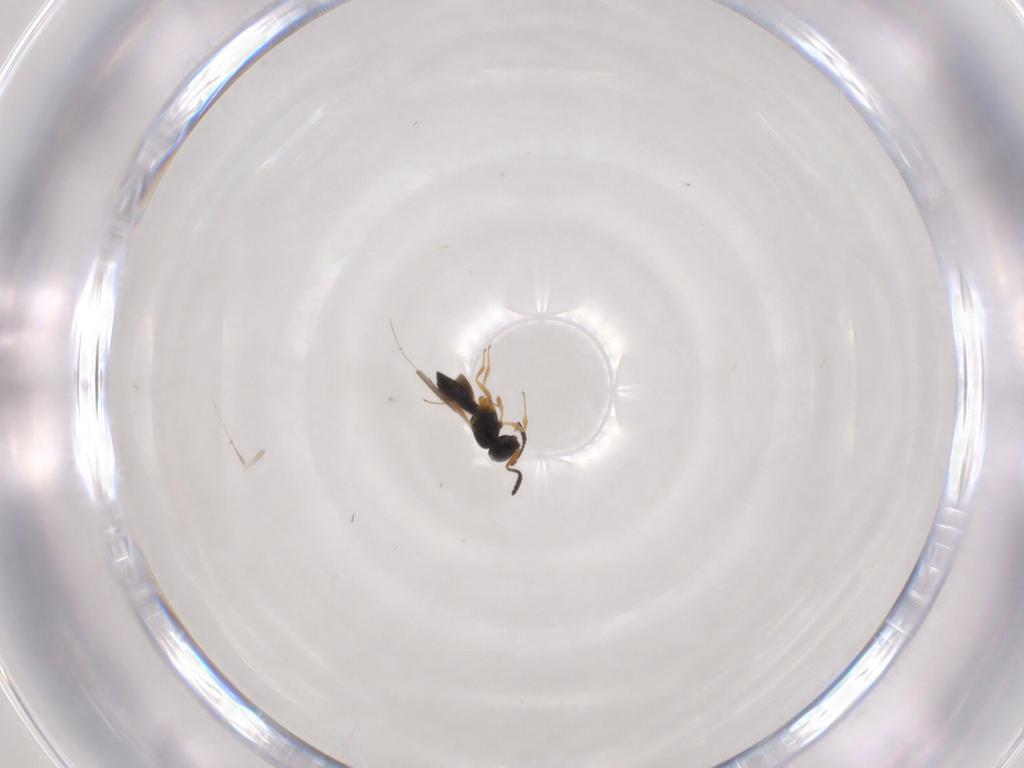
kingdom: Animalia
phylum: Arthropoda
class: Insecta
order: Hymenoptera
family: Scelionidae
